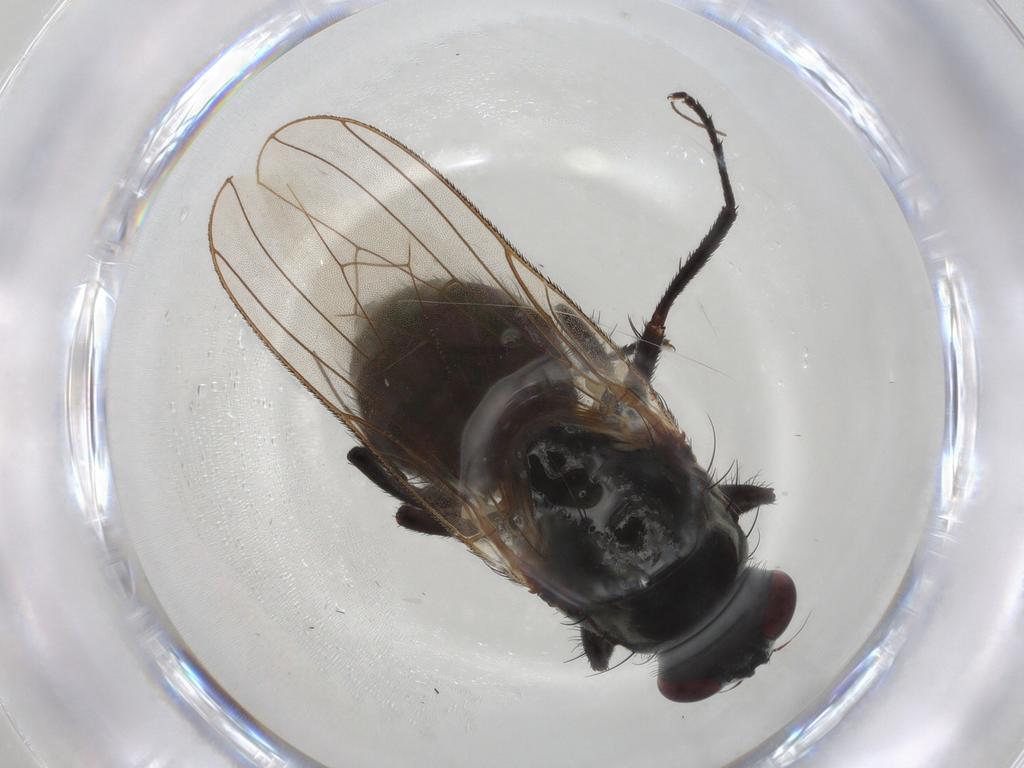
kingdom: Animalia
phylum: Arthropoda
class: Insecta
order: Diptera
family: Anthomyiidae
